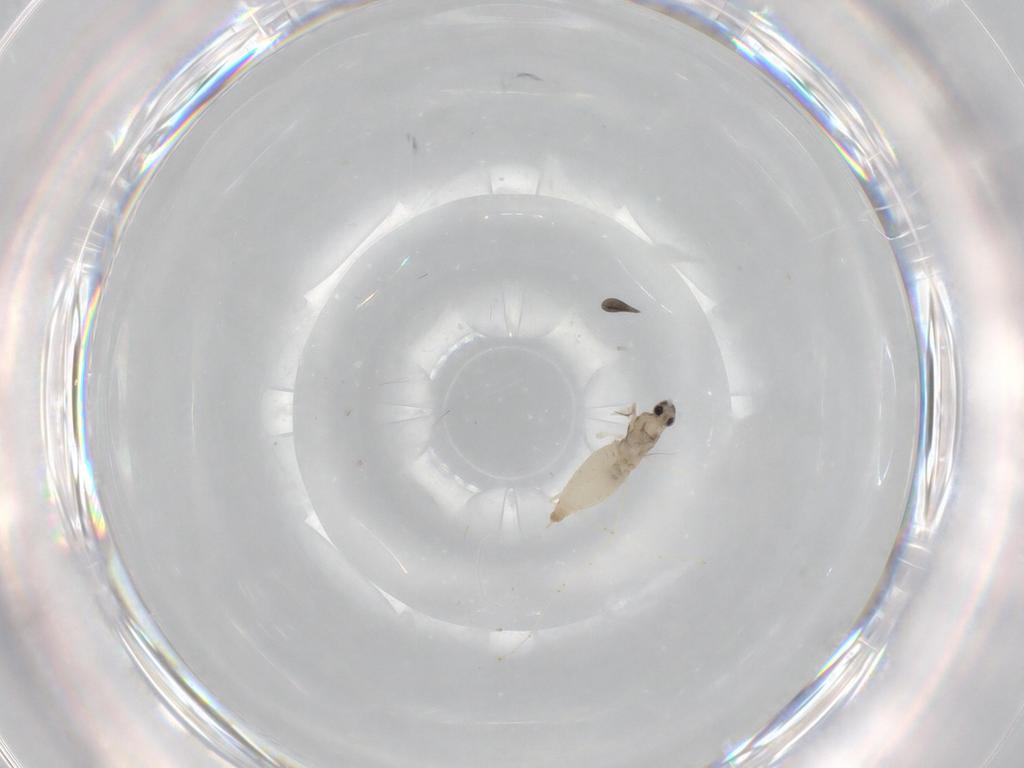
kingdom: Animalia
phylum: Arthropoda
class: Insecta
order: Diptera
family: Cecidomyiidae
